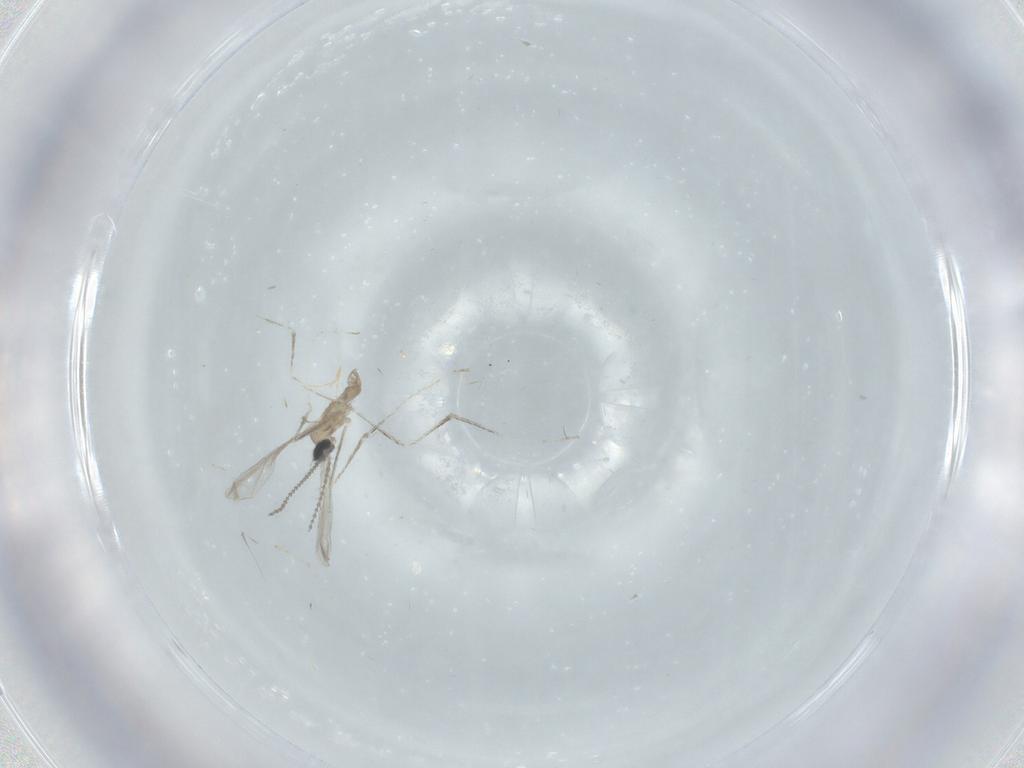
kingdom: Animalia
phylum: Arthropoda
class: Insecta
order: Diptera
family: Cecidomyiidae
